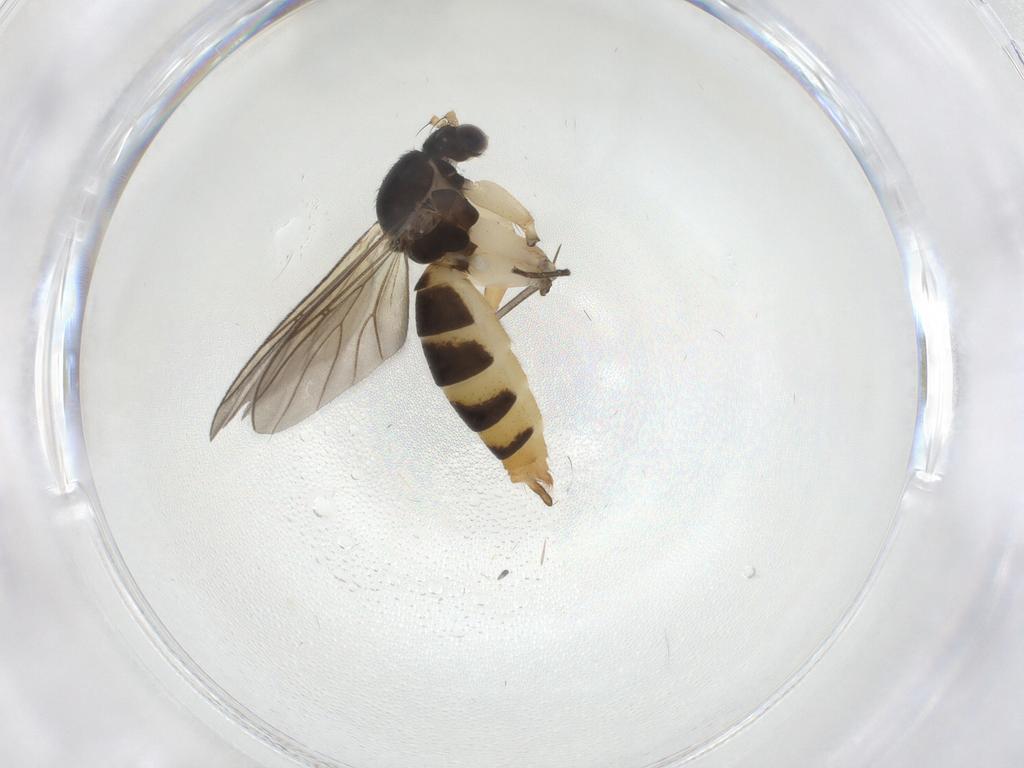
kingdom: Animalia
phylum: Arthropoda
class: Insecta
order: Diptera
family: Mycetophilidae
